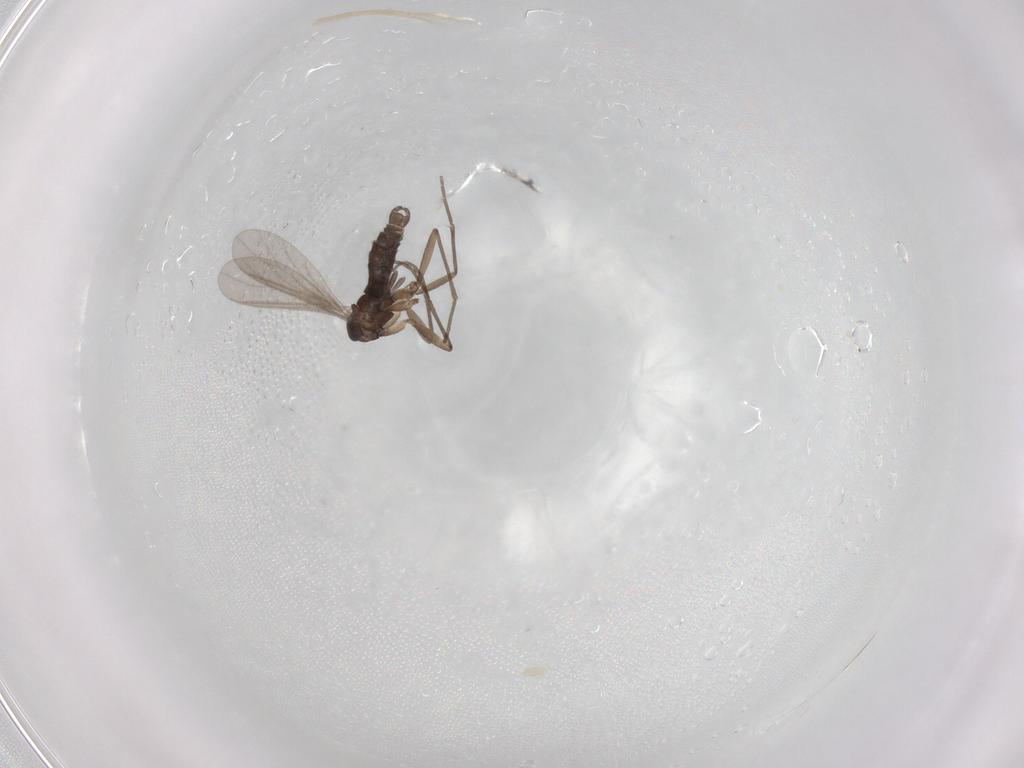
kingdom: Animalia
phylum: Arthropoda
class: Insecta
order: Diptera
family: Sciaridae
